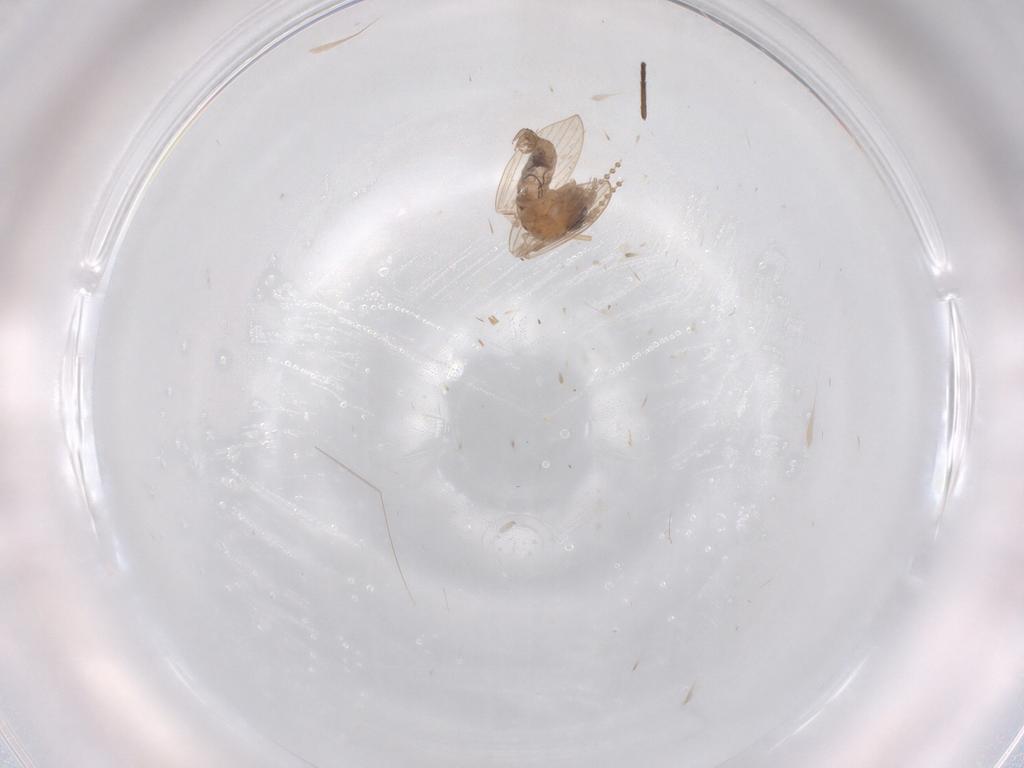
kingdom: Animalia
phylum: Arthropoda
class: Insecta
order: Diptera
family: Psychodidae
